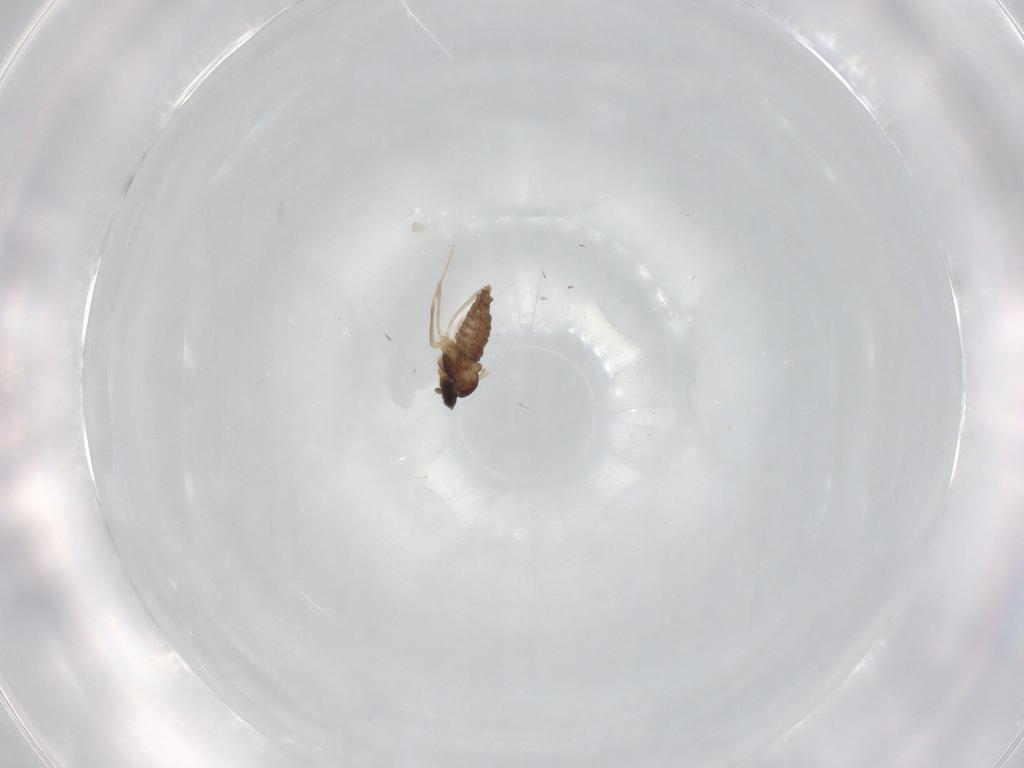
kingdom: Animalia
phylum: Arthropoda
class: Insecta
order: Diptera
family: Cecidomyiidae
